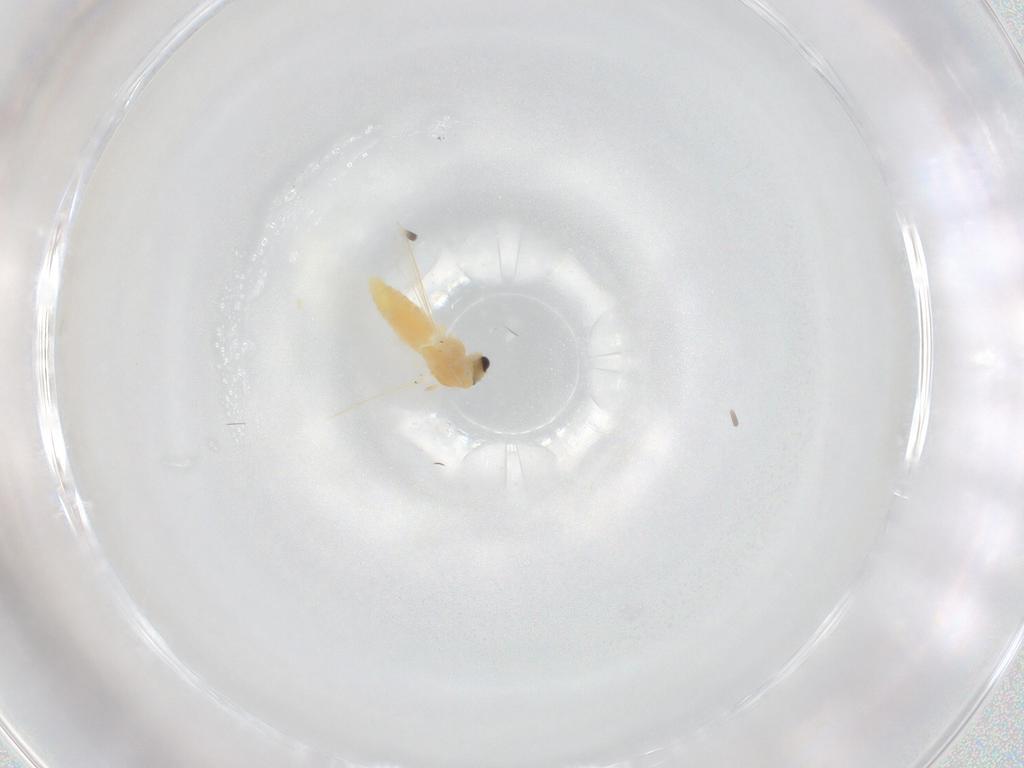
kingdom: Animalia
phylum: Arthropoda
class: Insecta
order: Diptera
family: Chironomidae
